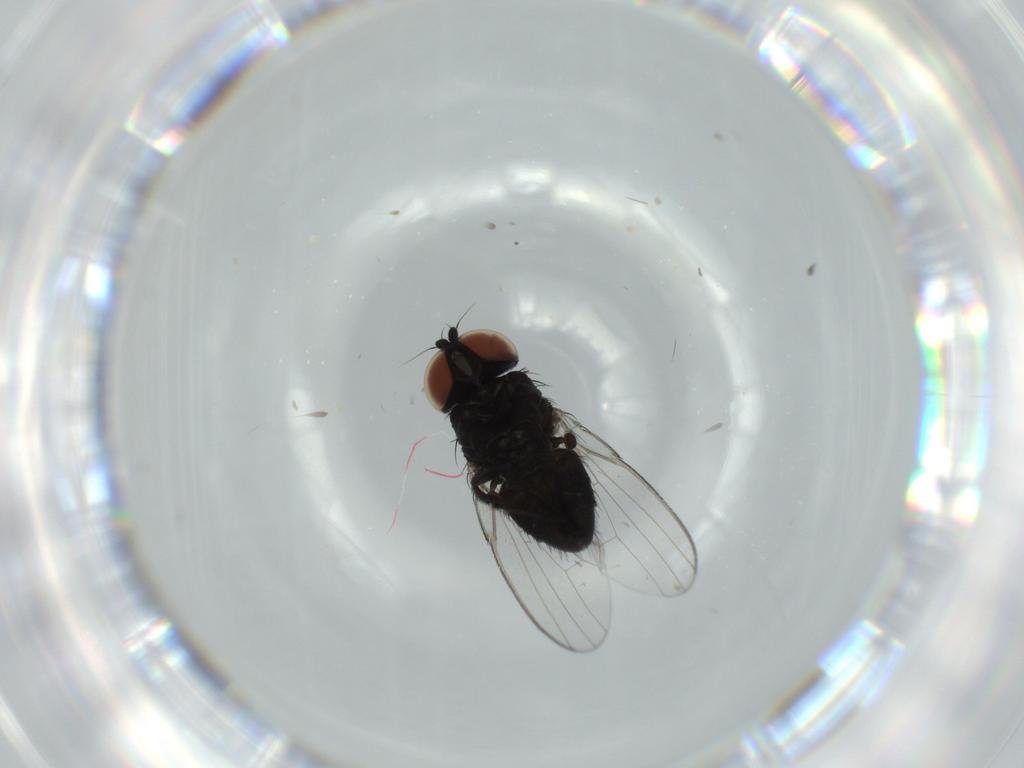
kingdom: Animalia
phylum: Arthropoda
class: Insecta
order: Diptera
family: Milichiidae
